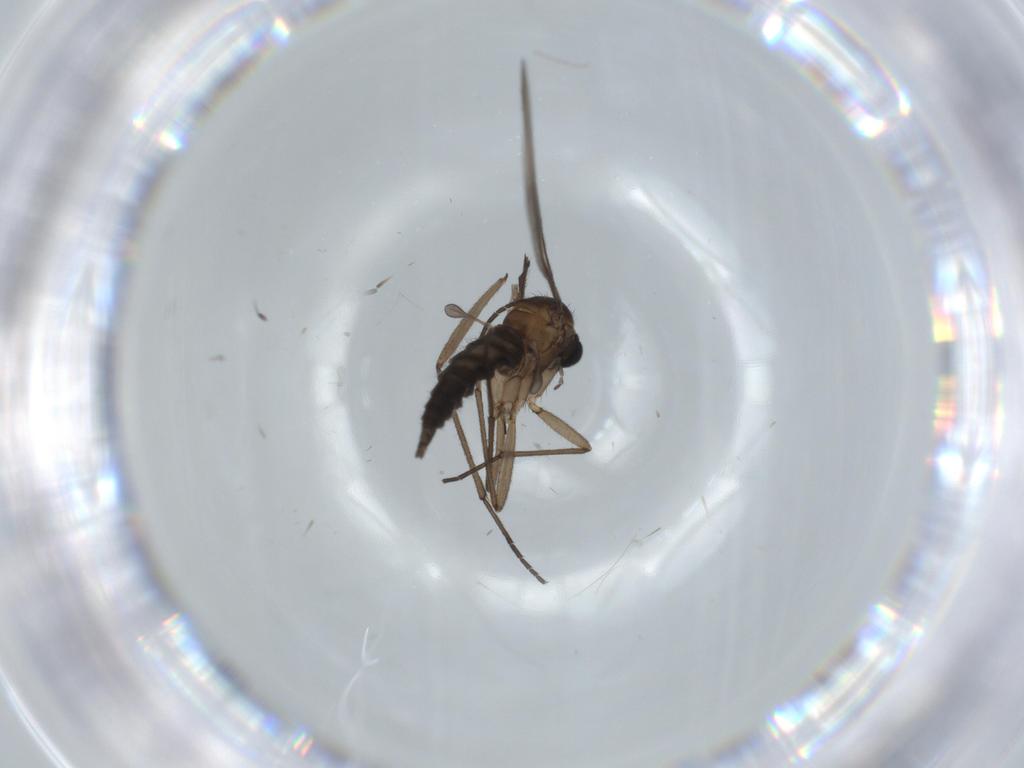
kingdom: Animalia
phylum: Arthropoda
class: Insecta
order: Diptera
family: Sciaridae
